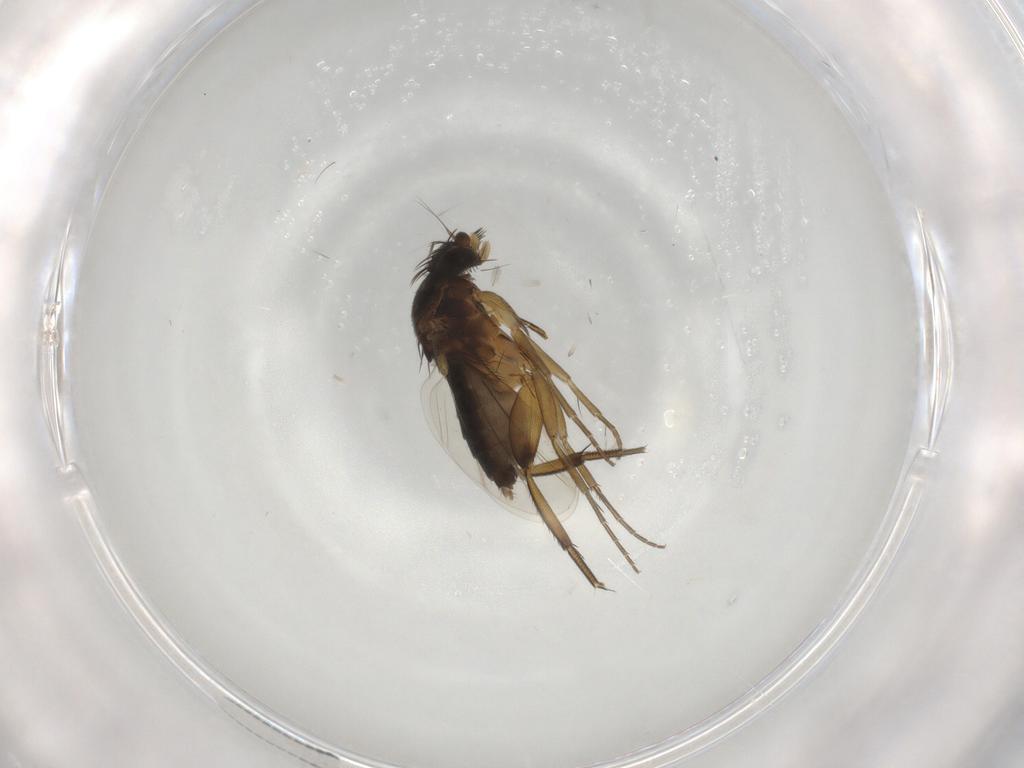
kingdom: Animalia
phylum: Arthropoda
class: Insecta
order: Diptera
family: Phoridae
